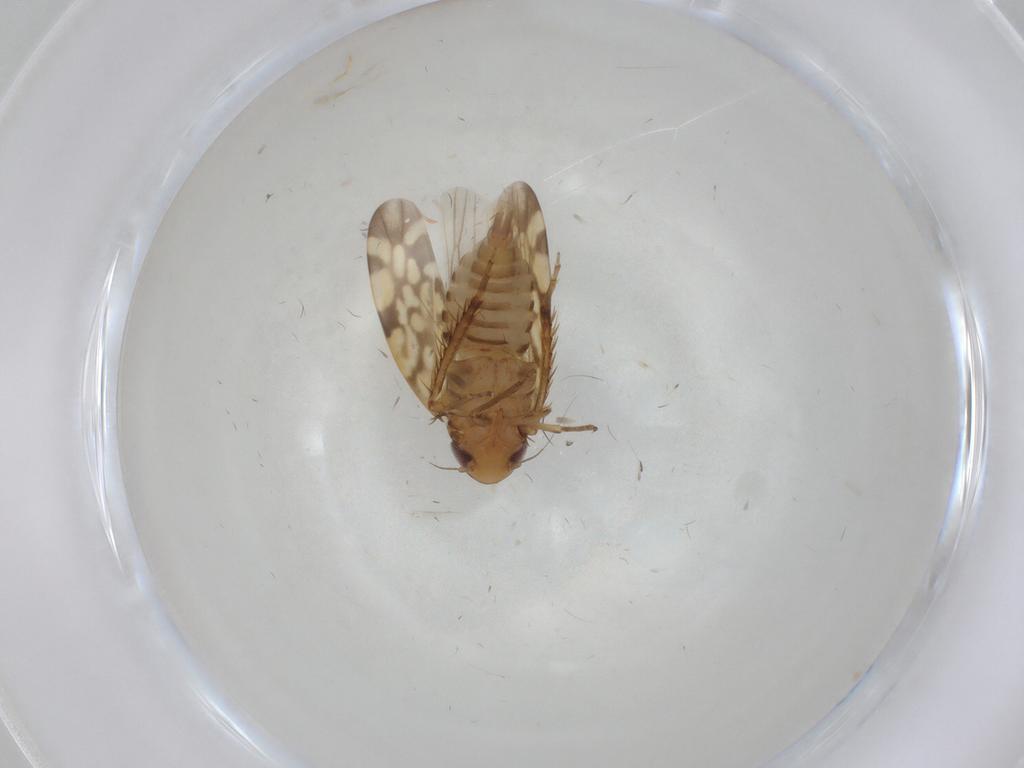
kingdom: Animalia
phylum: Arthropoda
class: Insecta
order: Hemiptera
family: Cicadellidae
